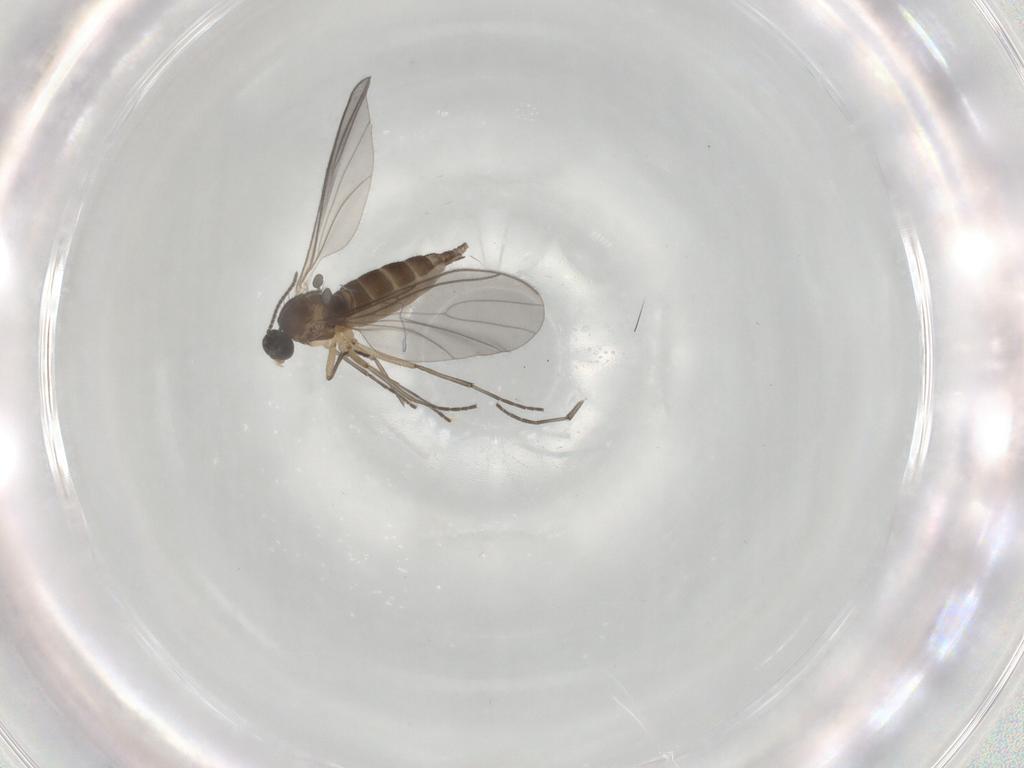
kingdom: Animalia
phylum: Arthropoda
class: Insecta
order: Diptera
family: Sciaridae
